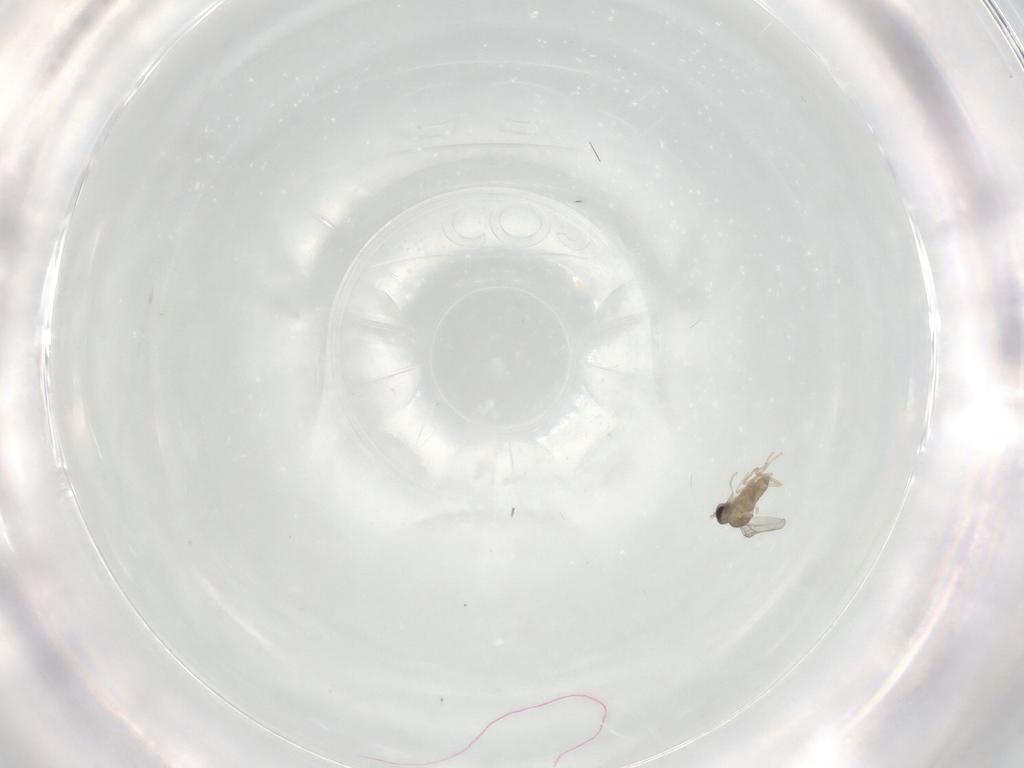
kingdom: Animalia
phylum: Arthropoda
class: Insecta
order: Diptera
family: Cecidomyiidae
